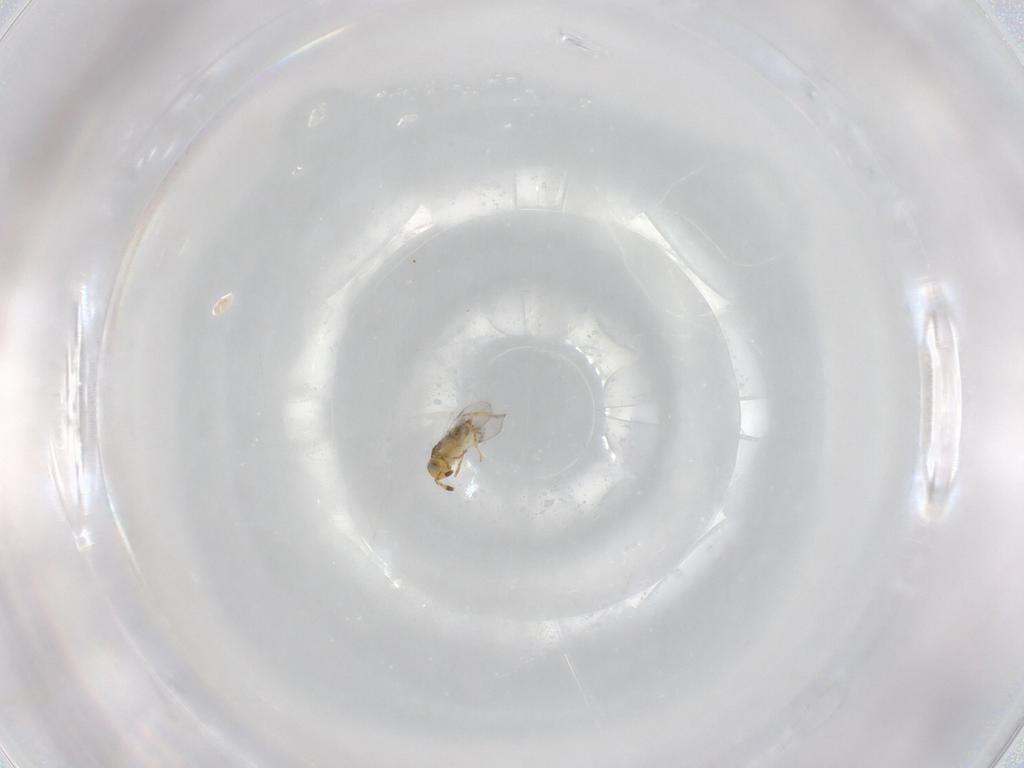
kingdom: Animalia
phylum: Arthropoda
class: Insecta
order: Hymenoptera
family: Encyrtidae
